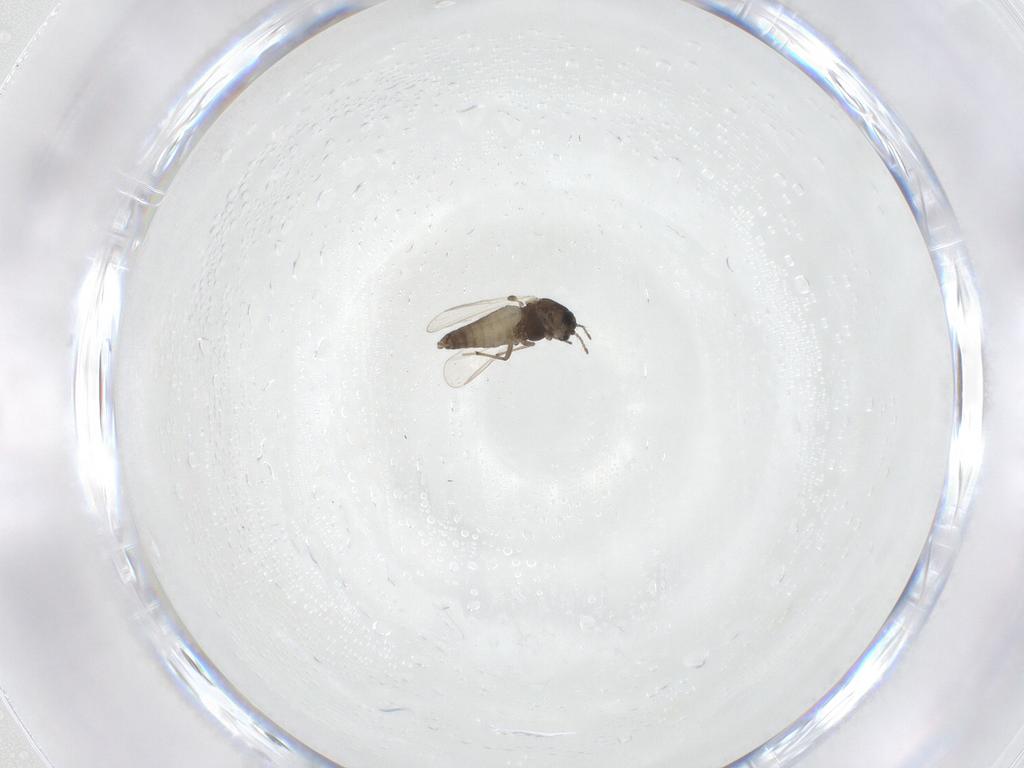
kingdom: Animalia
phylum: Arthropoda
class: Insecta
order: Diptera
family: Chironomidae
